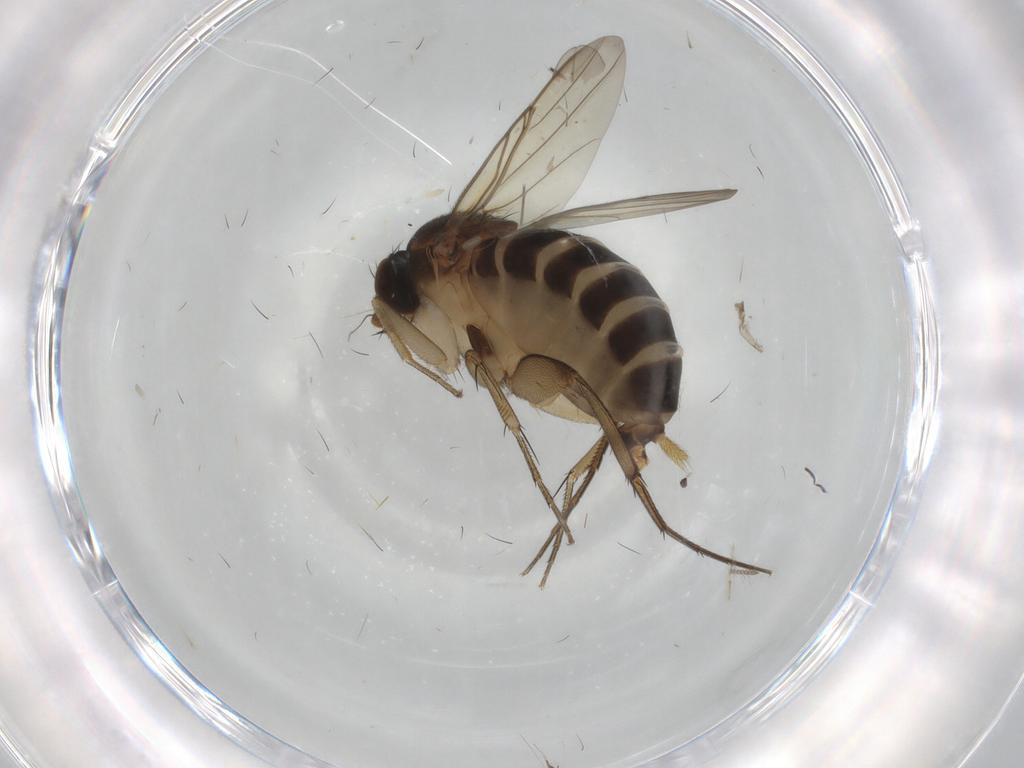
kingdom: Animalia
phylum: Arthropoda
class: Insecta
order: Diptera
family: Phoridae
